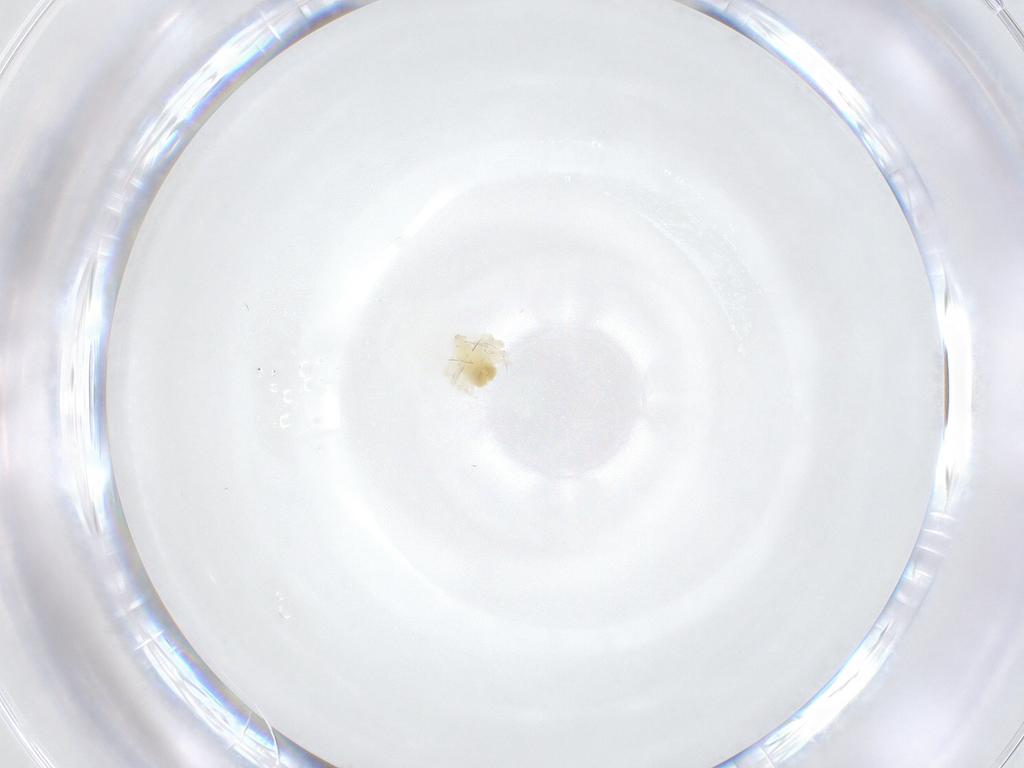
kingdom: Animalia
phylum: Arthropoda
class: Arachnida
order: Trombidiformes
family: Anystidae
